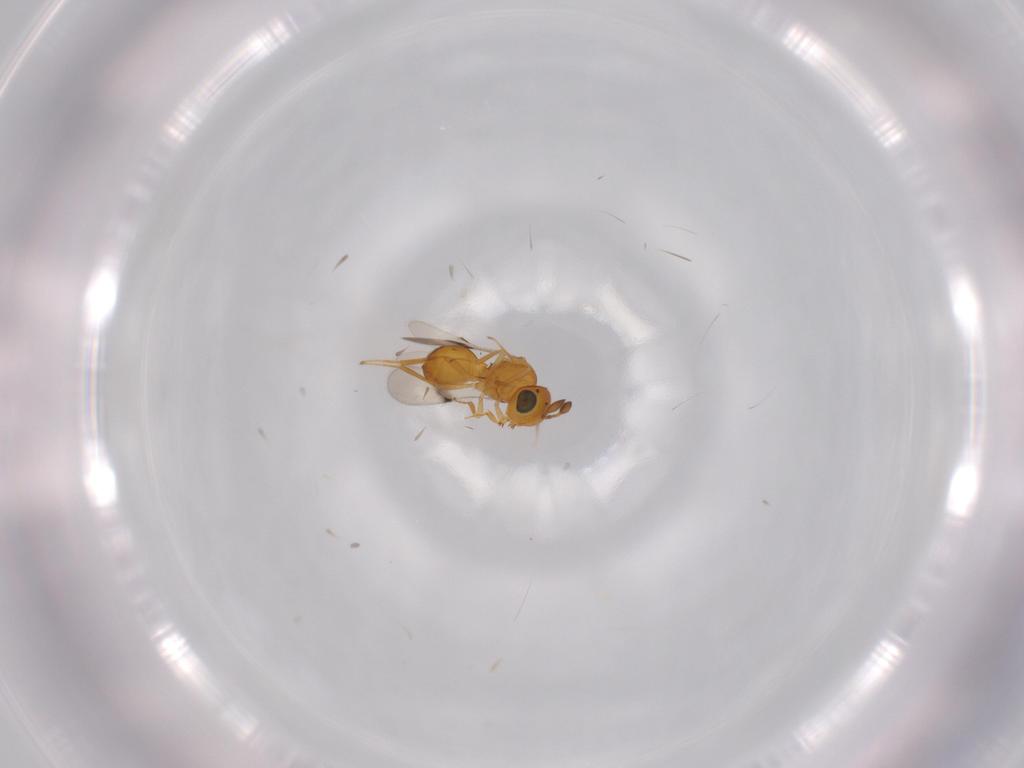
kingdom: Animalia
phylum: Arthropoda
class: Insecta
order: Hymenoptera
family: Scelionidae
